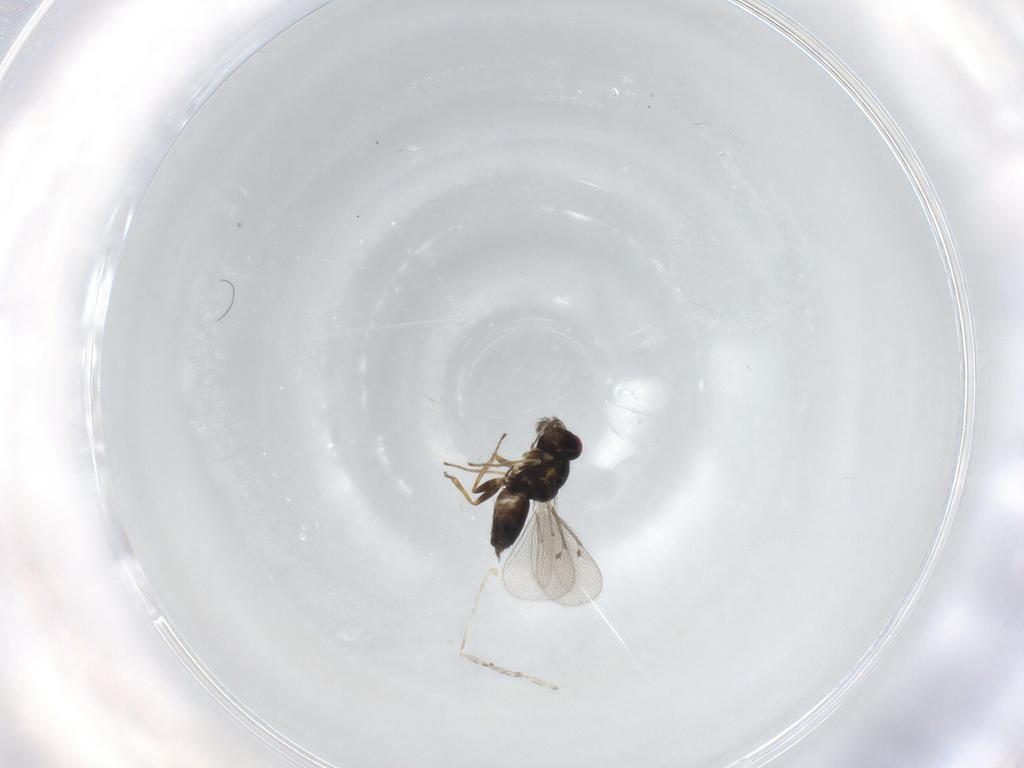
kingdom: Animalia
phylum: Arthropoda
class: Insecta
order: Hymenoptera
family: Eulophidae
